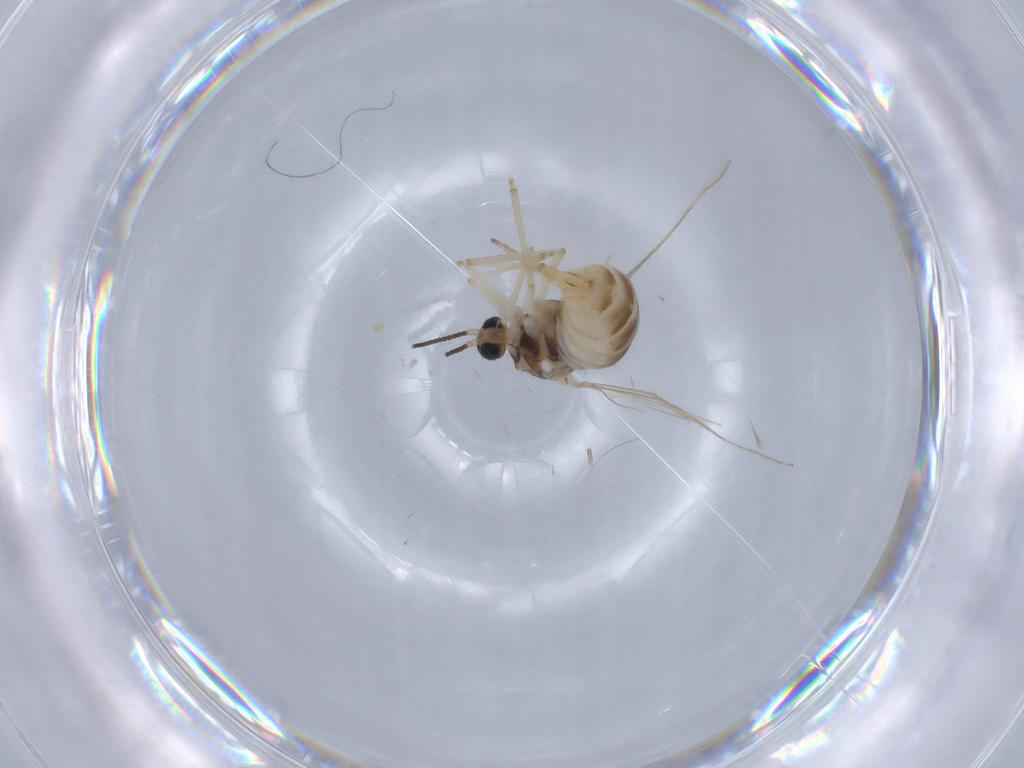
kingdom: Animalia
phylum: Arthropoda
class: Insecta
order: Diptera
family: Cecidomyiidae
